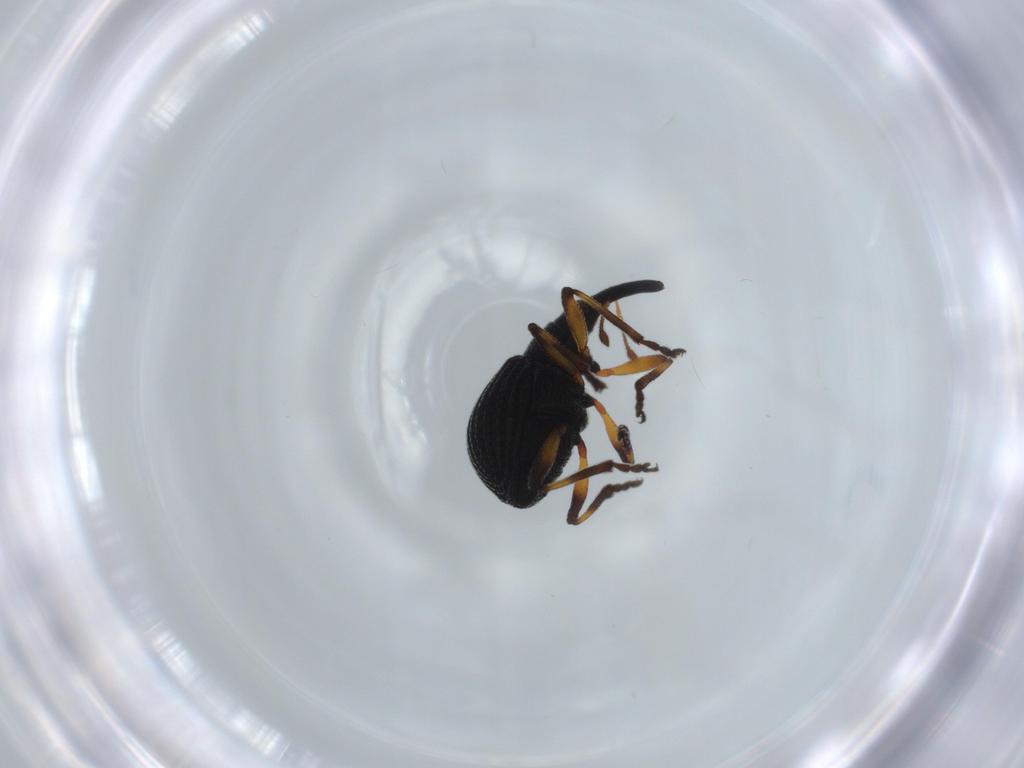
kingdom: Animalia
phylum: Arthropoda
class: Insecta
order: Coleoptera
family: Brentidae
